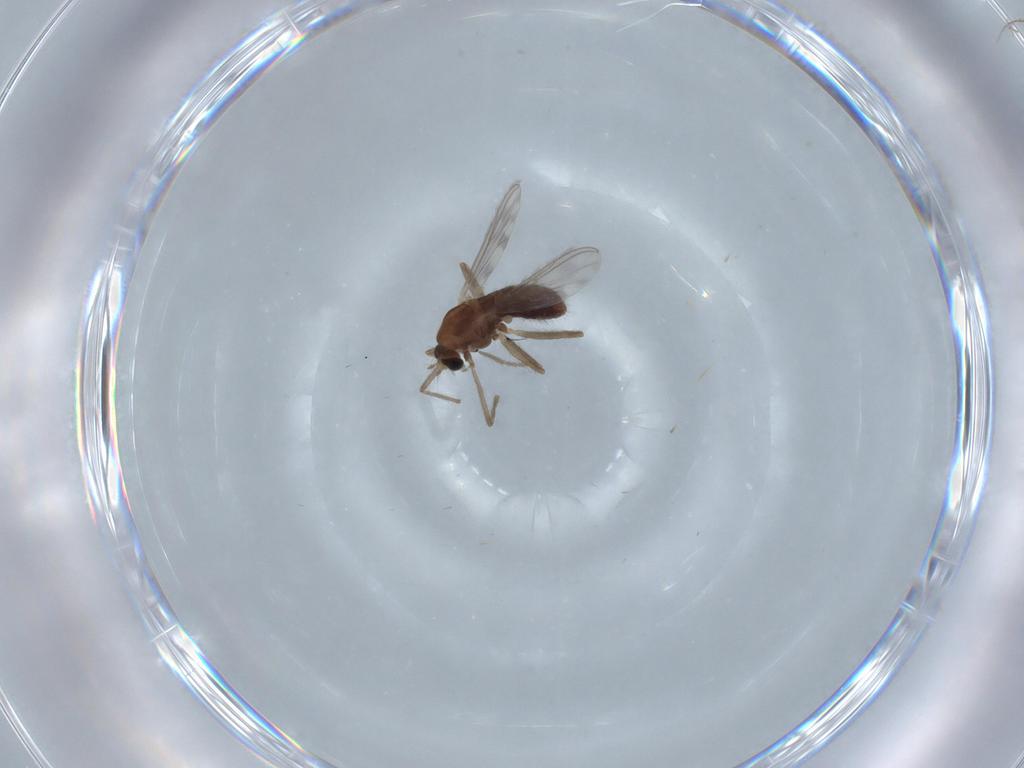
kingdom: Animalia
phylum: Arthropoda
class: Insecta
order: Diptera
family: Chironomidae
